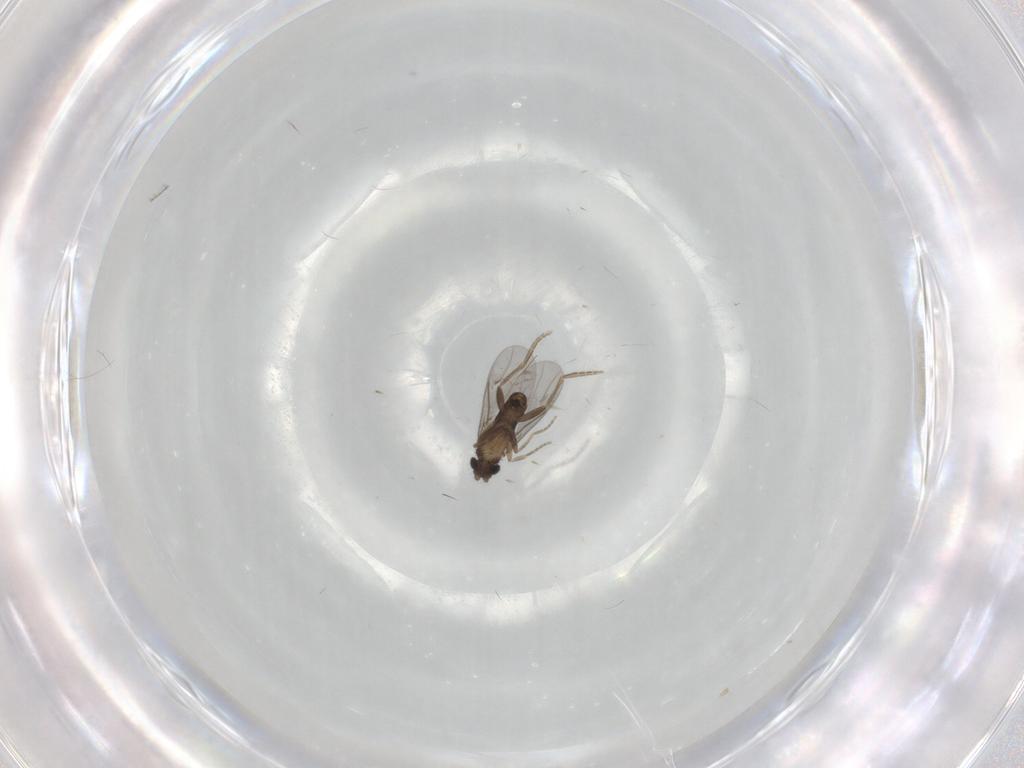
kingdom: Animalia
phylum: Arthropoda
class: Insecta
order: Diptera
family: Ceratopogonidae
